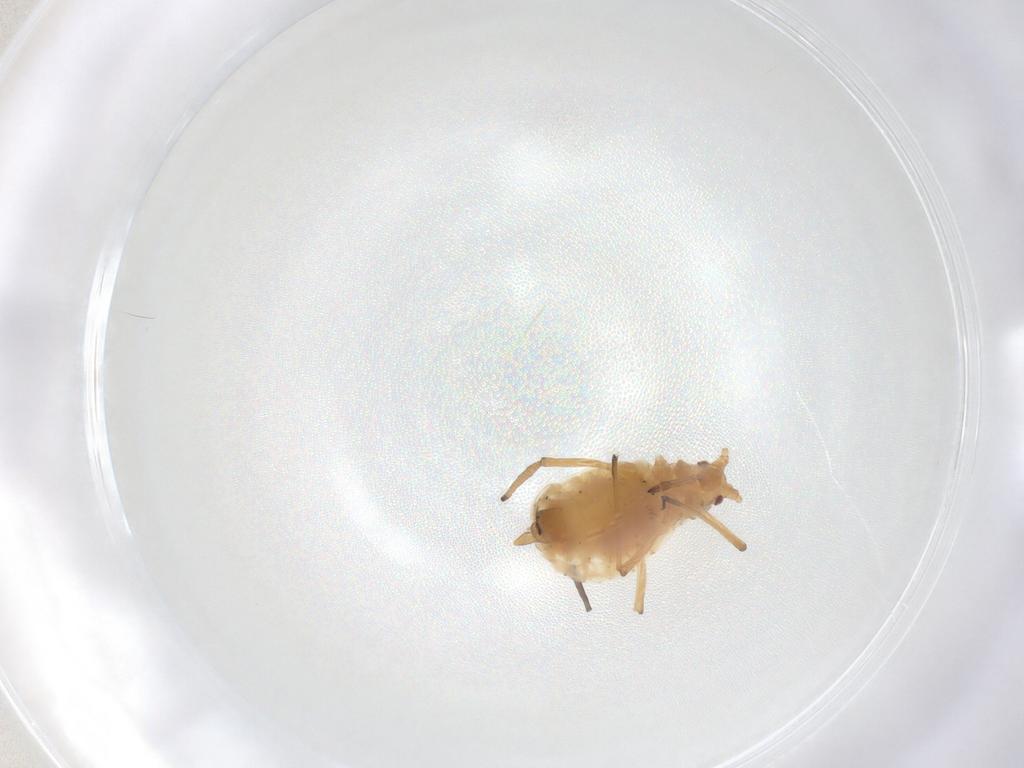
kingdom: Animalia
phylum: Arthropoda
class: Insecta
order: Hemiptera
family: Aphididae
